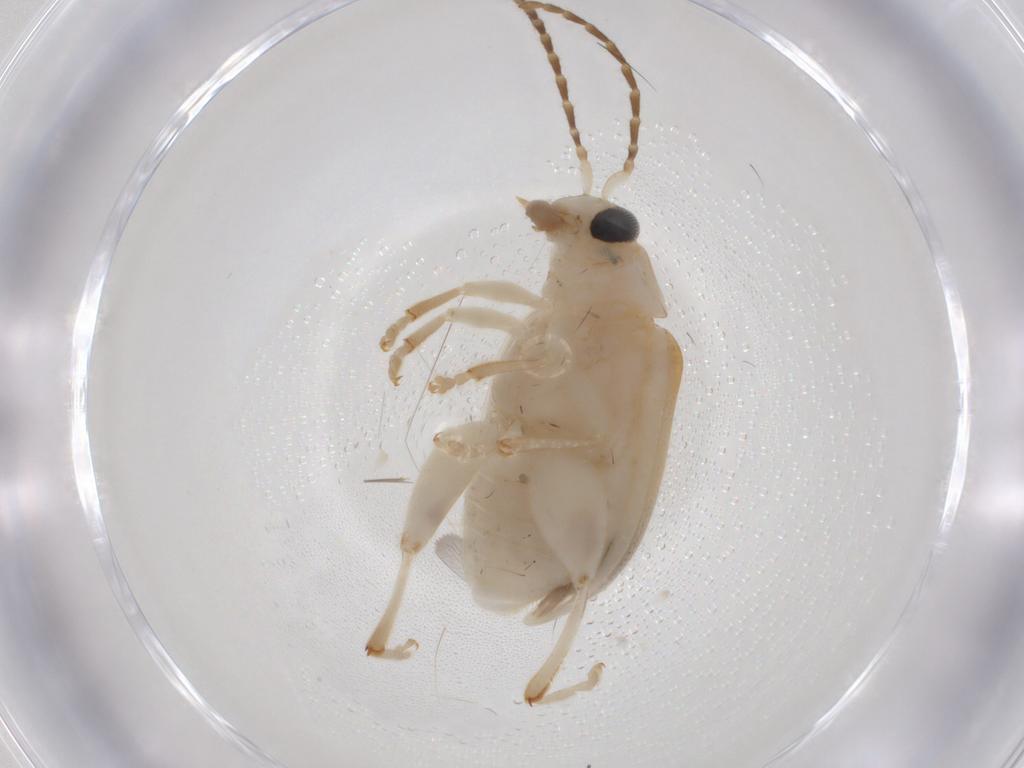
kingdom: Animalia
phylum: Arthropoda
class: Insecta
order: Coleoptera
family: Chrysomelidae
